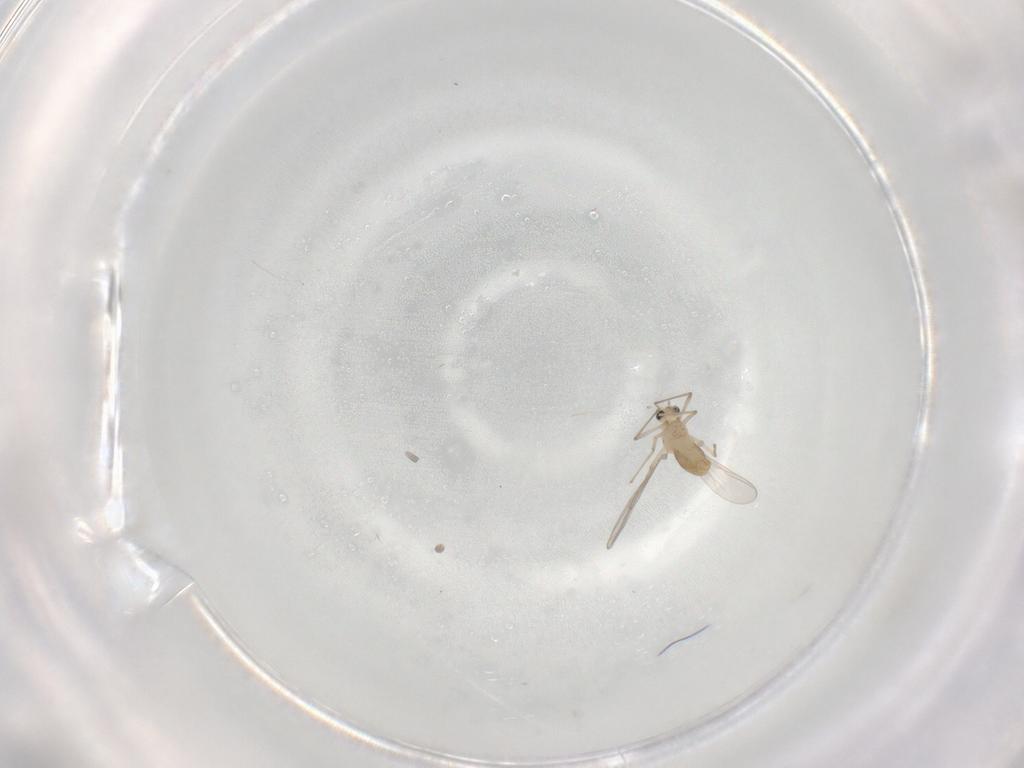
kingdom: Animalia
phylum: Arthropoda
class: Insecta
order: Diptera
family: Chironomidae
